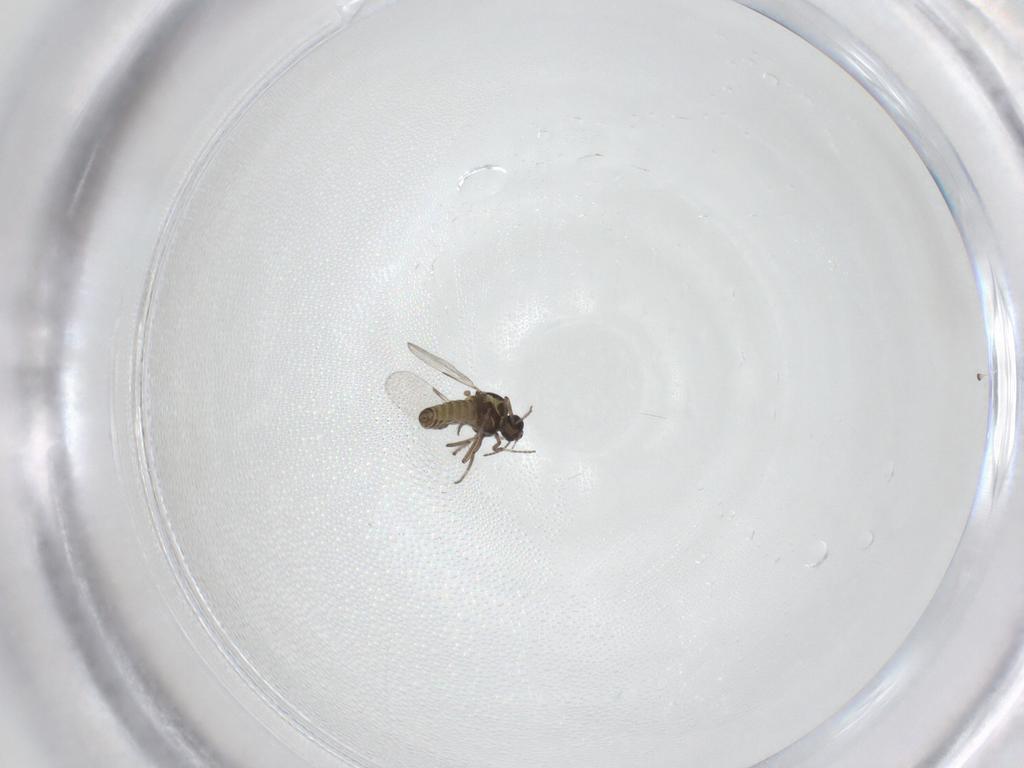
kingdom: Animalia
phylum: Arthropoda
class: Insecta
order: Diptera
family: Ceratopogonidae
